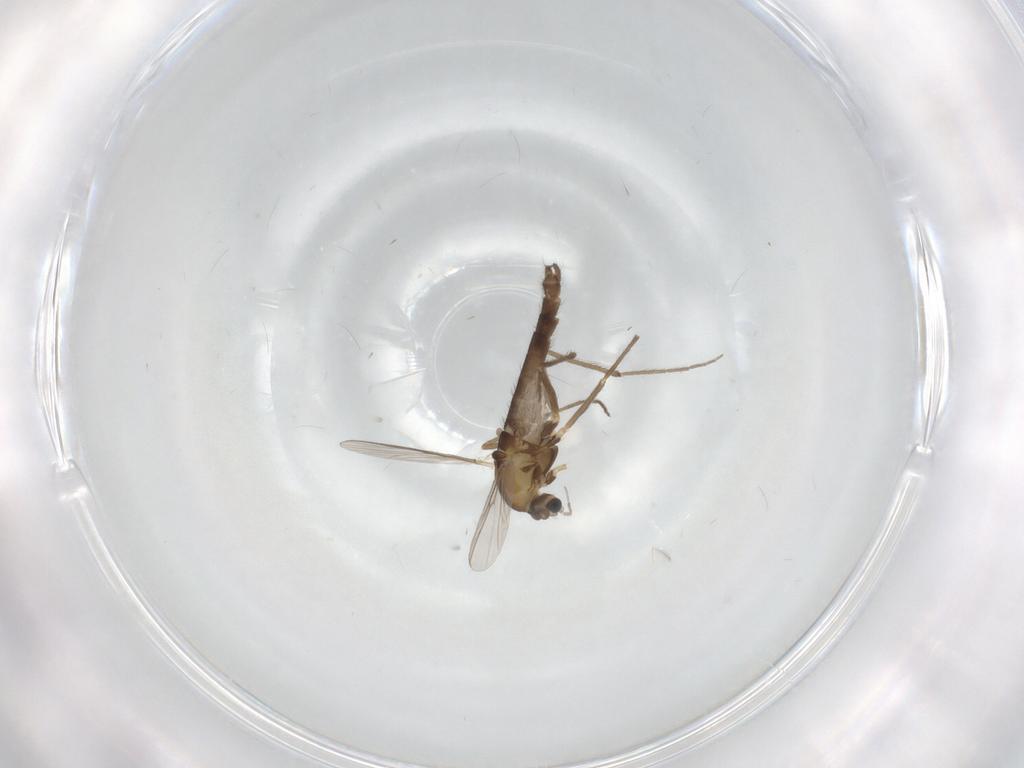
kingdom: Animalia
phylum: Arthropoda
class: Insecta
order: Diptera
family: Chironomidae
